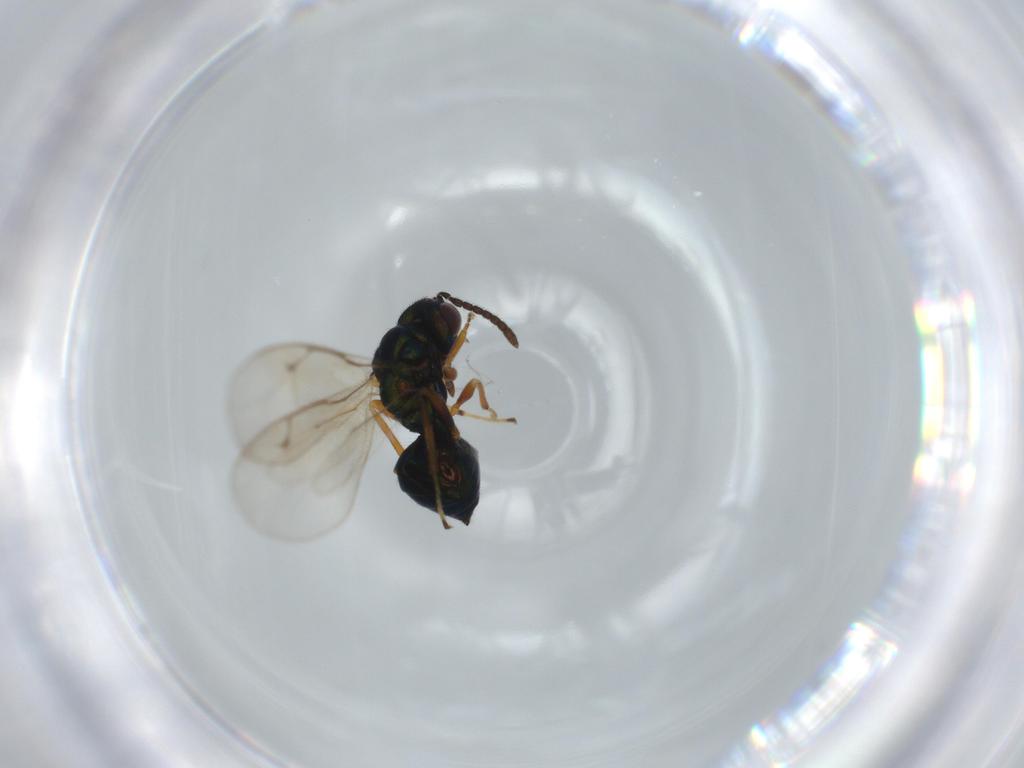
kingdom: Animalia
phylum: Arthropoda
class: Insecta
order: Hymenoptera
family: Pteromalidae
